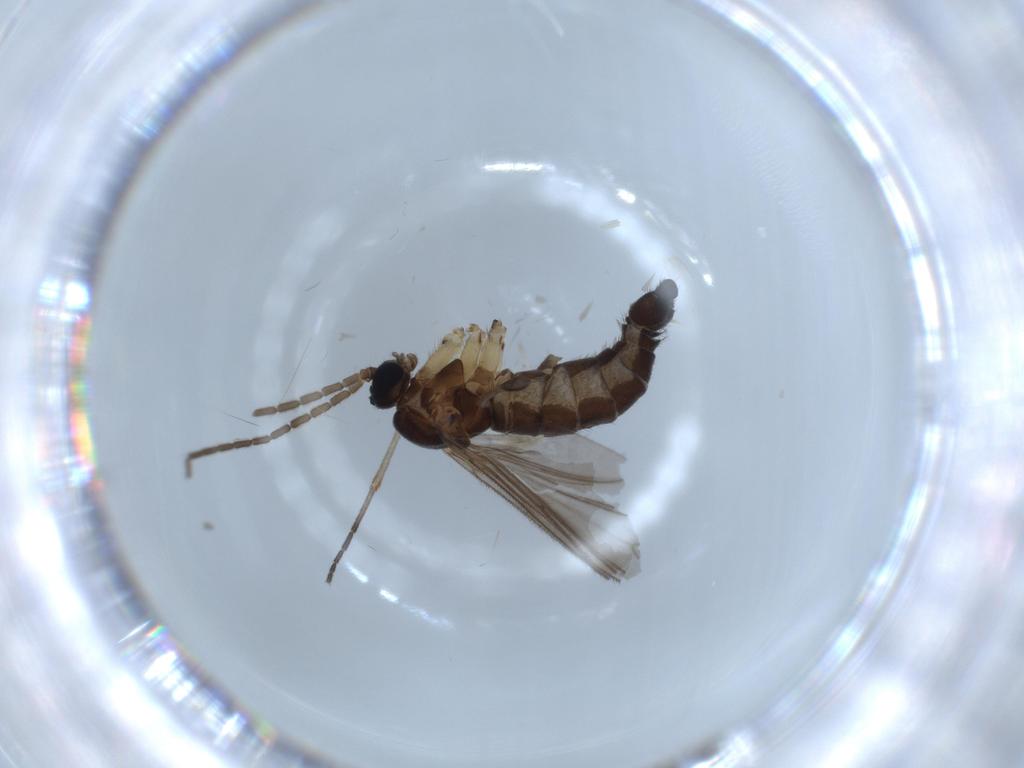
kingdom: Animalia
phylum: Arthropoda
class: Insecta
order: Diptera
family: Sciaridae
